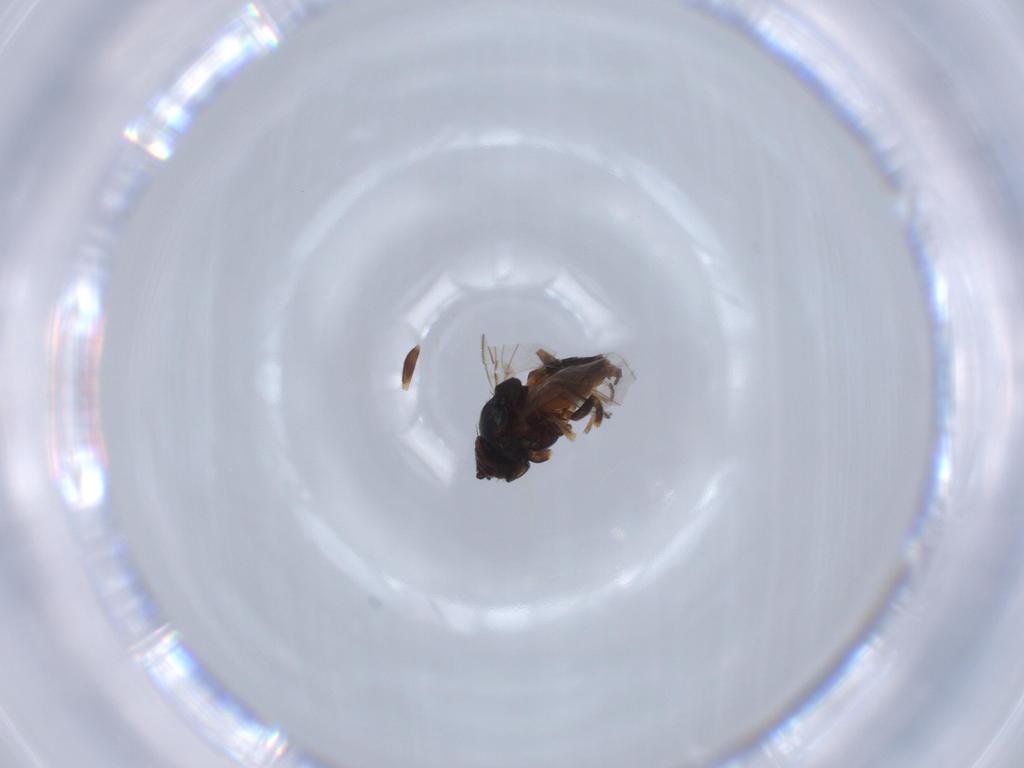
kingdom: Animalia
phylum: Arthropoda
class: Insecta
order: Diptera
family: Chloropidae
